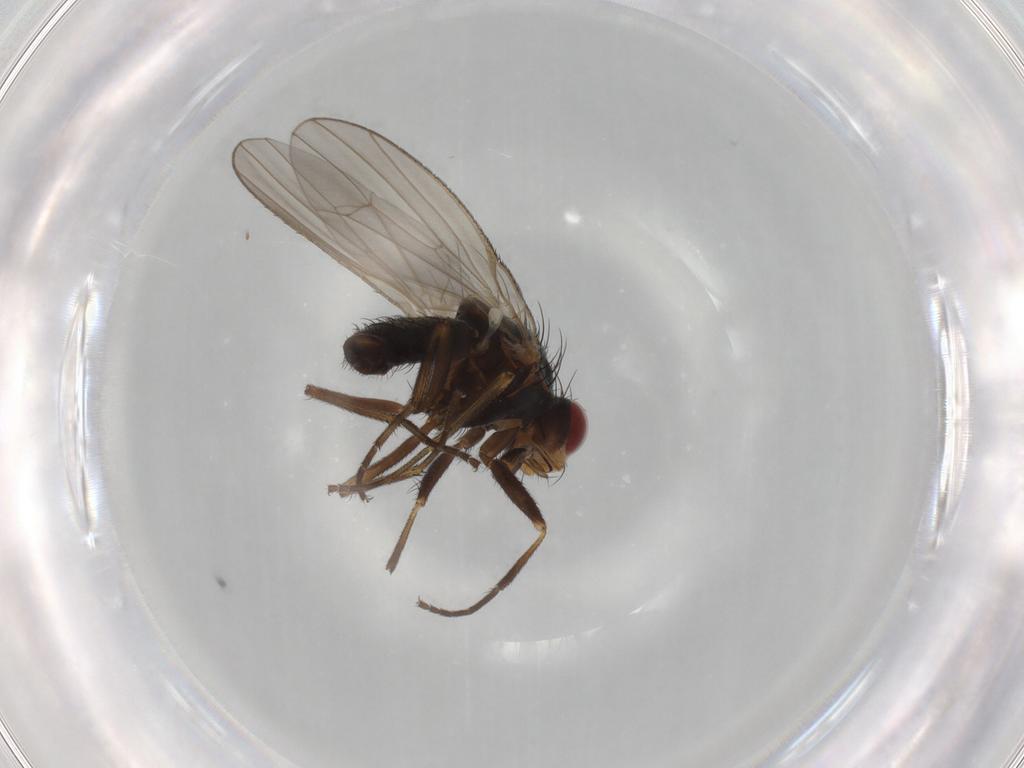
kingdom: Animalia
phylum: Arthropoda
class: Insecta
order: Diptera
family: Heleomyzidae
